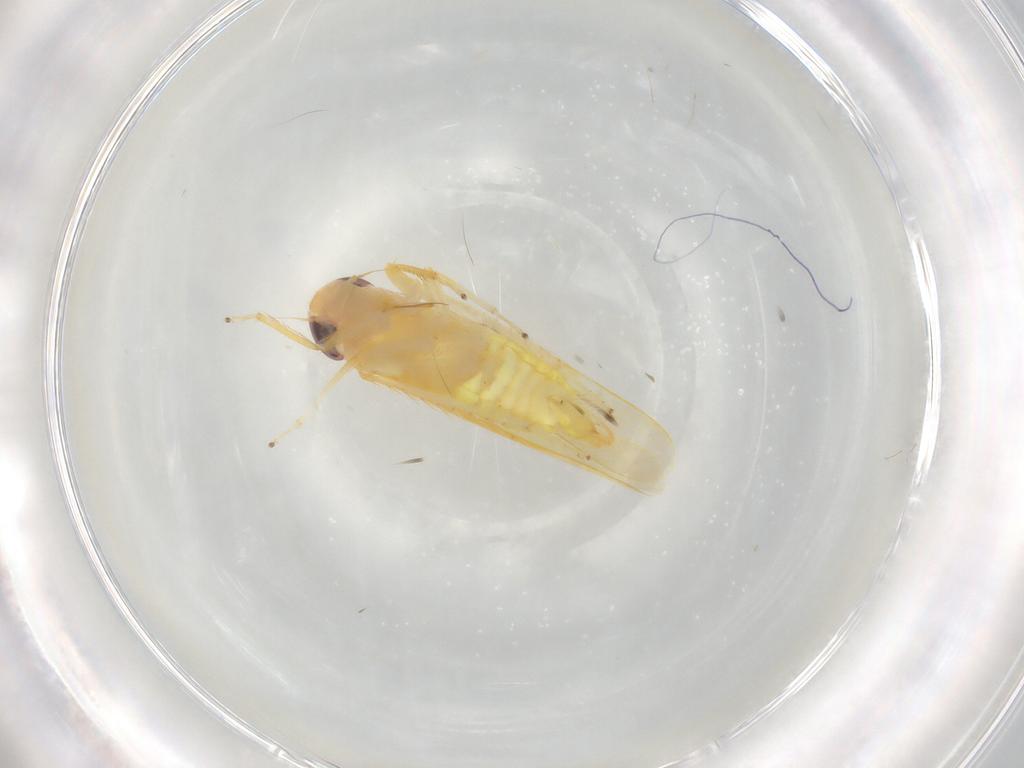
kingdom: Animalia
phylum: Arthropoda
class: Insecta
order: Hemiptera
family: Cicadellidae
